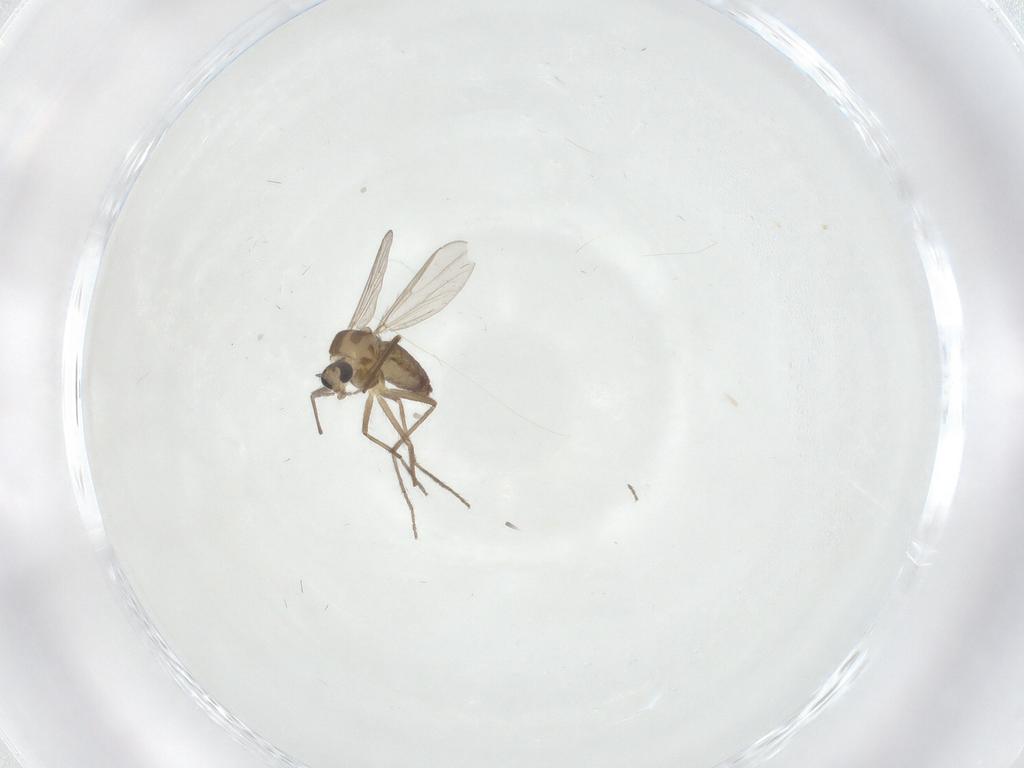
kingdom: Animalia
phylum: Arthropoda
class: Insecta
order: Diptera
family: Chironomidae
